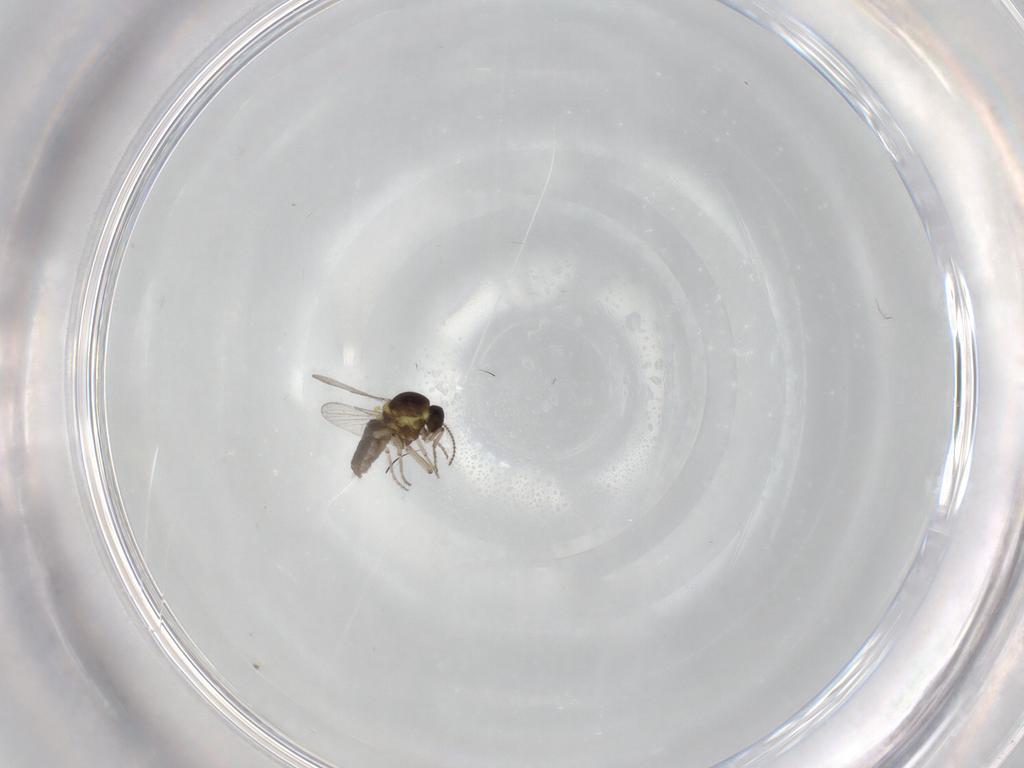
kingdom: Animalia
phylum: Arthropoda
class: Insecta
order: Diptera
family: Ceratopogonidae
